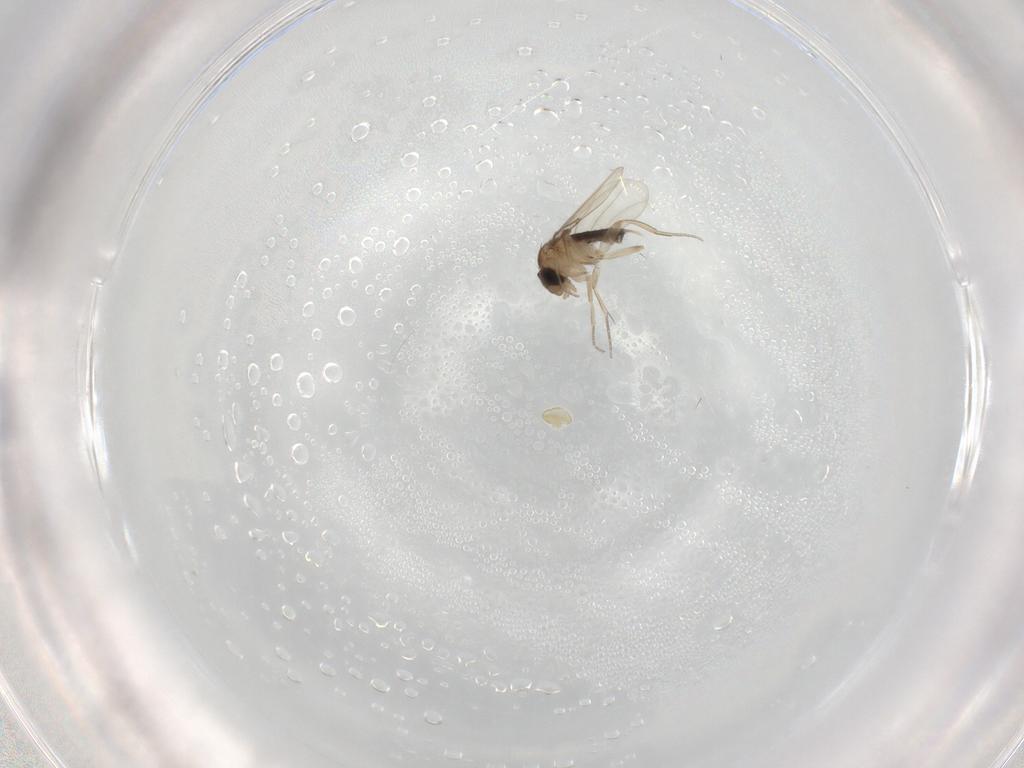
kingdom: Animalia
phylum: Arthropoda
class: Insecta
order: Diptera
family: Phoridae
